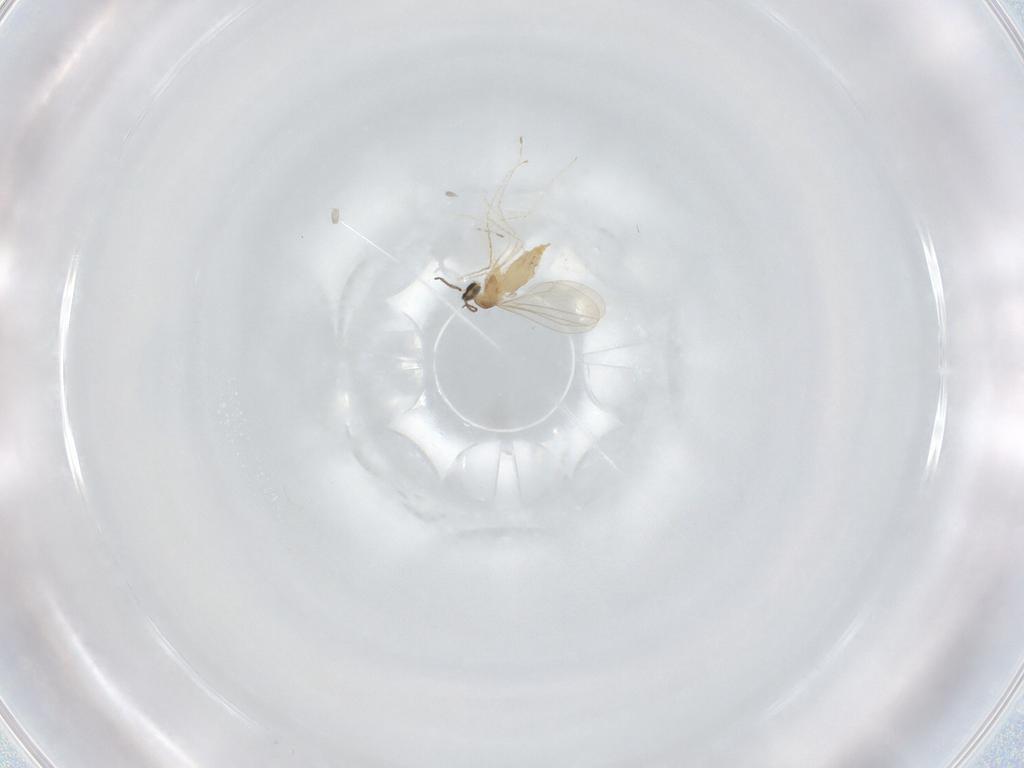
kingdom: Animalia
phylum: Arthropoda
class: Insecta
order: Diptera
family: Cecidomyiidae
